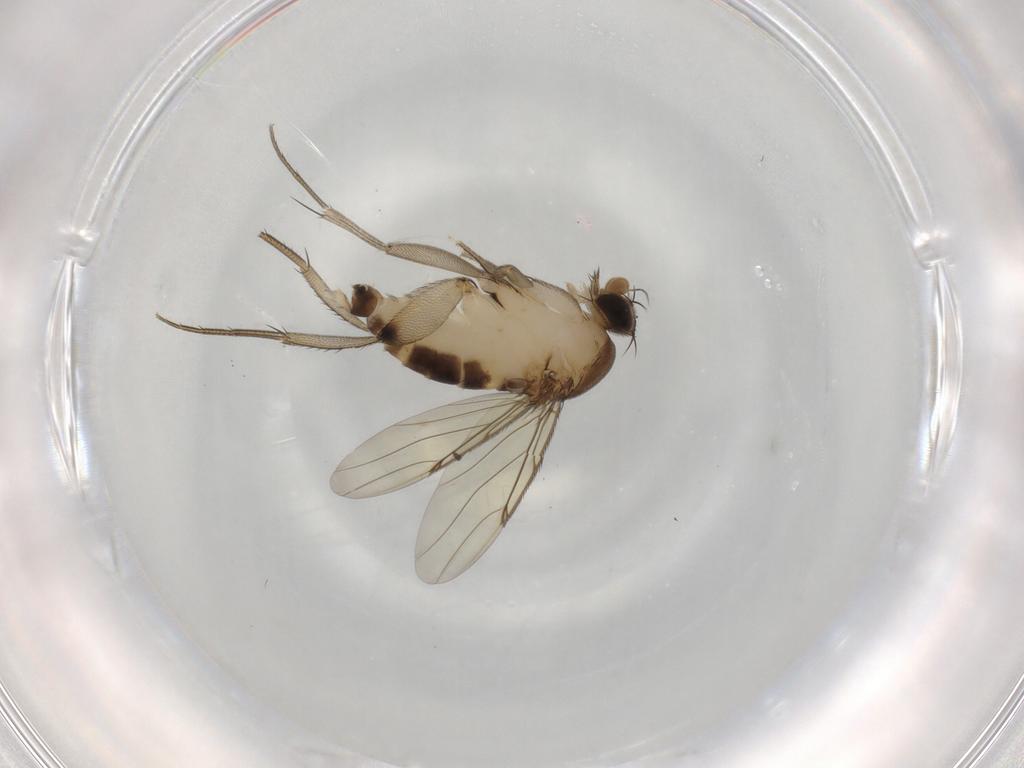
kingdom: Animalia
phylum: Arthropoda
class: Insecta
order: Diptera
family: Phoridae
